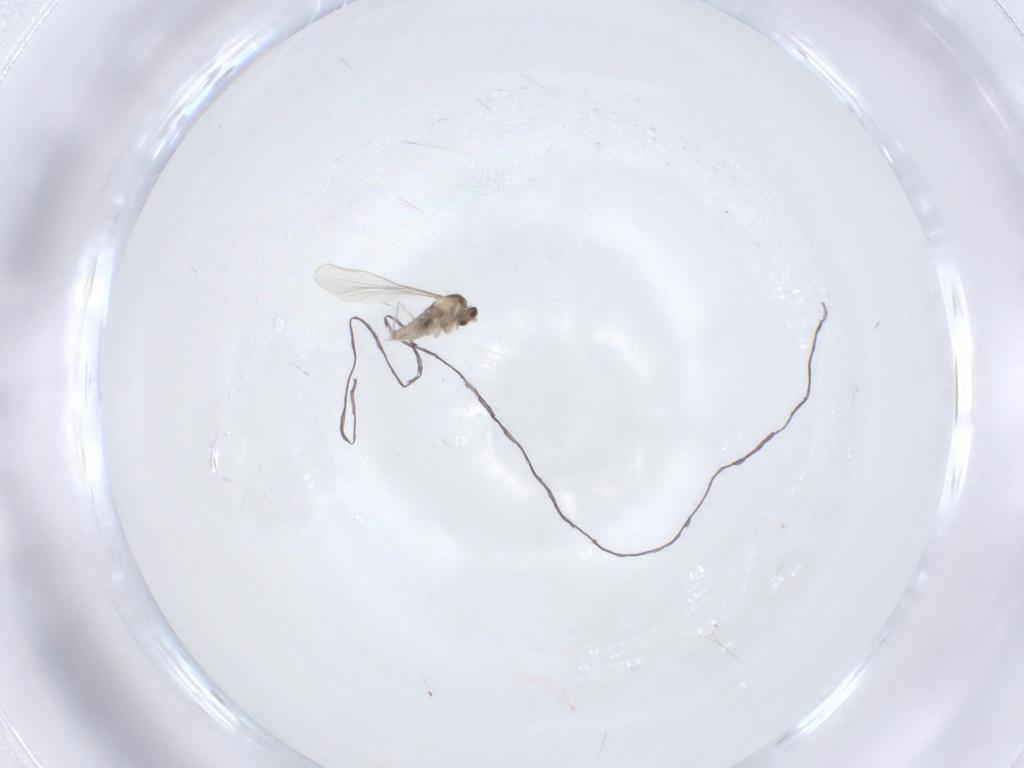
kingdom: Animalia
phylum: Arthropoda
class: Insecta
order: Diptera
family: Cecidomyiidae
